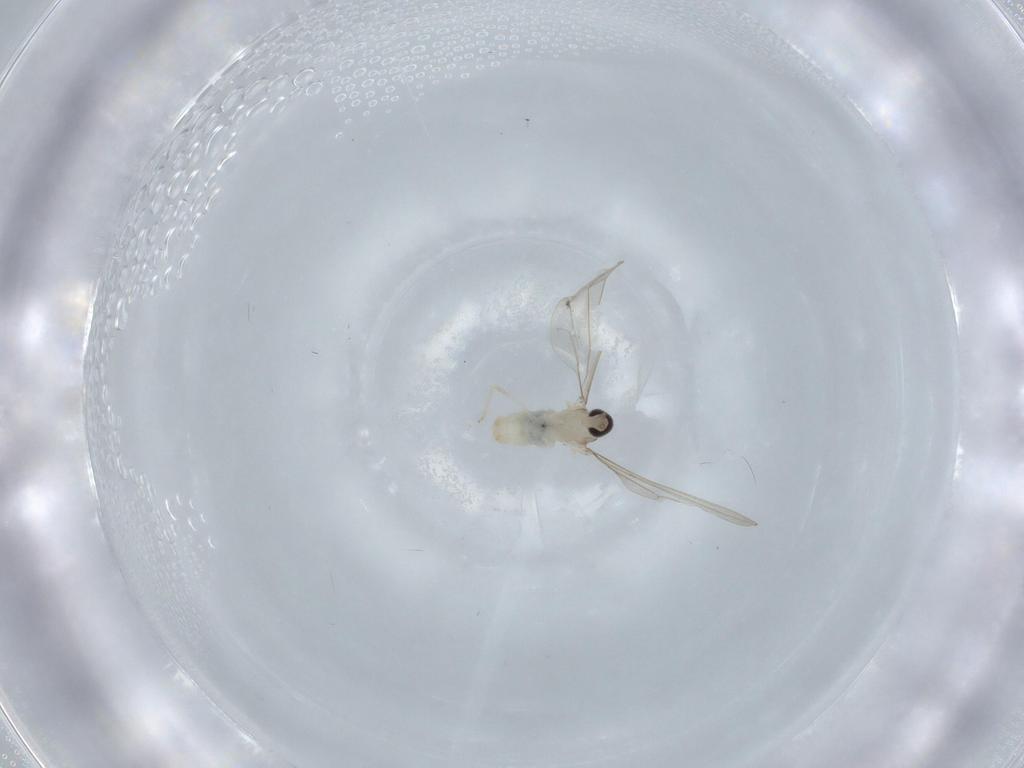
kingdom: Animalia
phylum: Arthropoda
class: Insecta
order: Diptera
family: Cecidomyiidae
